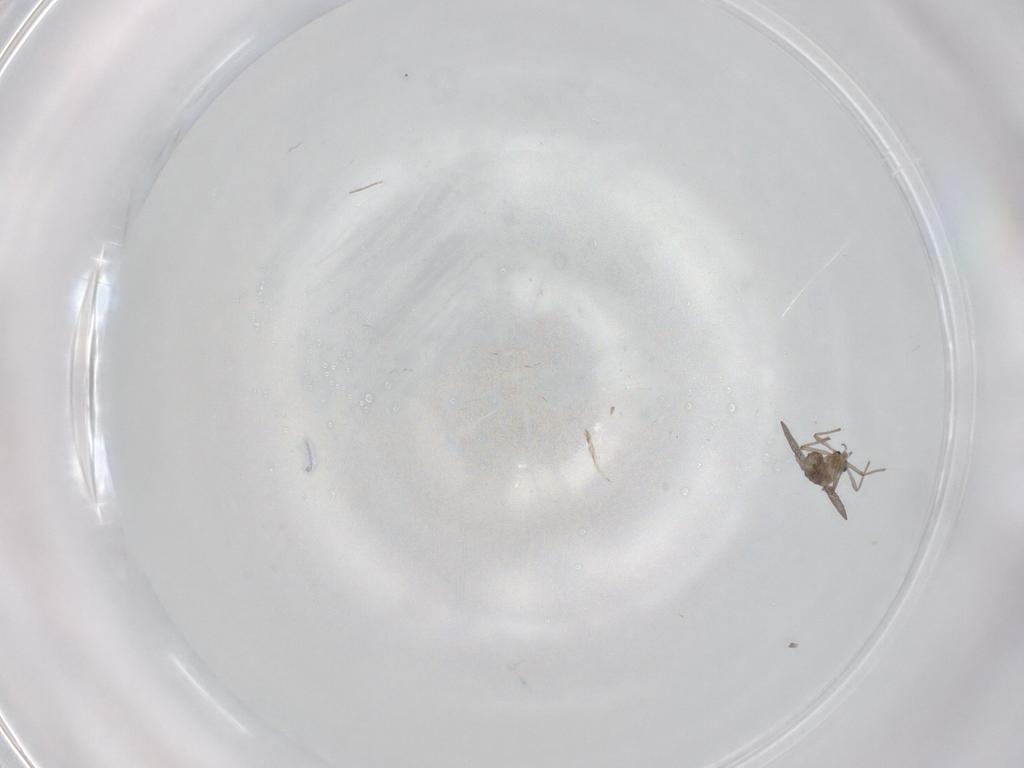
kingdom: Animalia
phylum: Arthropoda
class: Insecta
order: Diptera
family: Chironomidae
